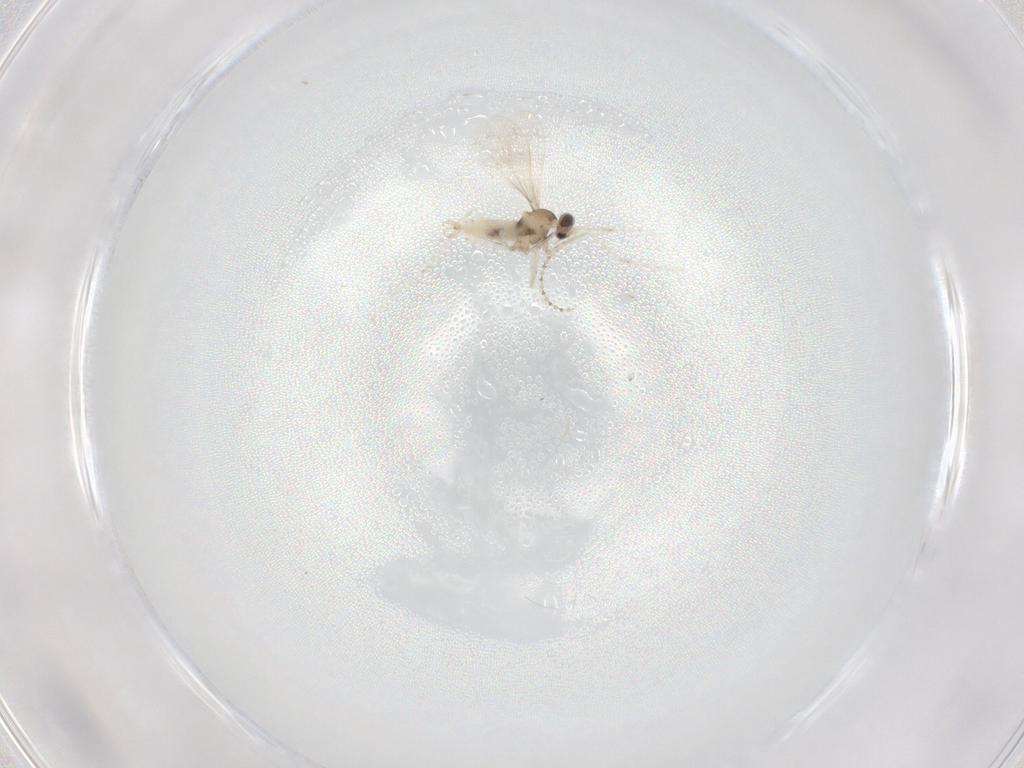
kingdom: Animalia
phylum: Arthropoda
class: Insecta
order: Diptera
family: Cecidomyiidae
